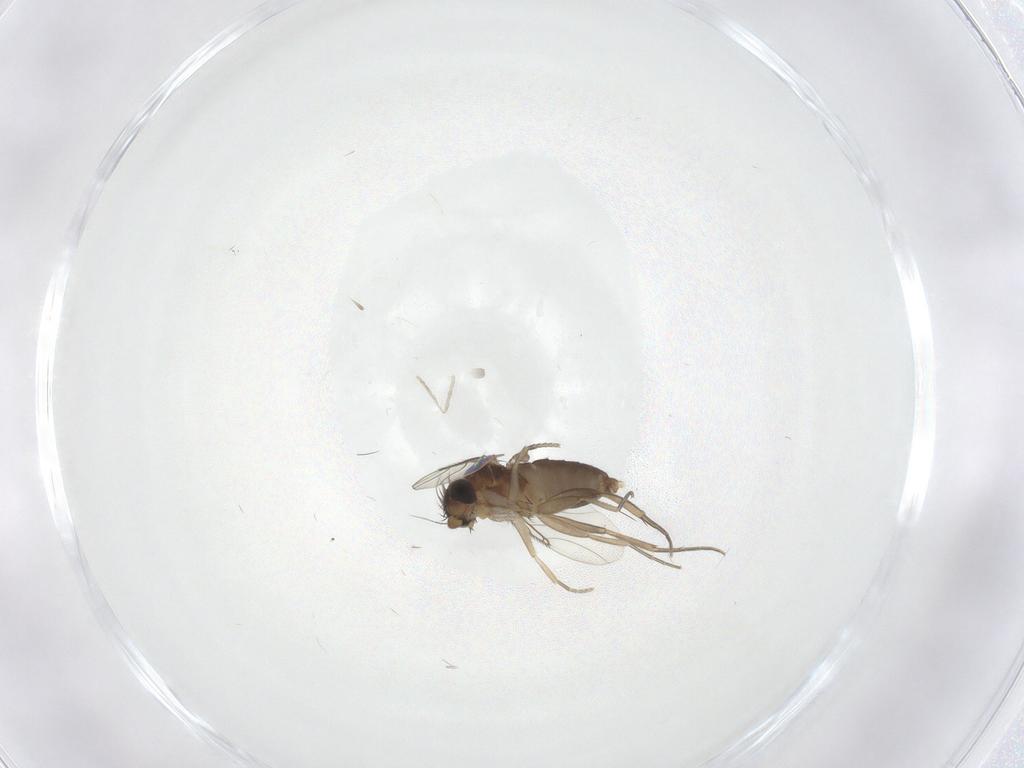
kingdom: Animalia
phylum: Arthropoda
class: Insecta
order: Diptera
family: Phoridae
